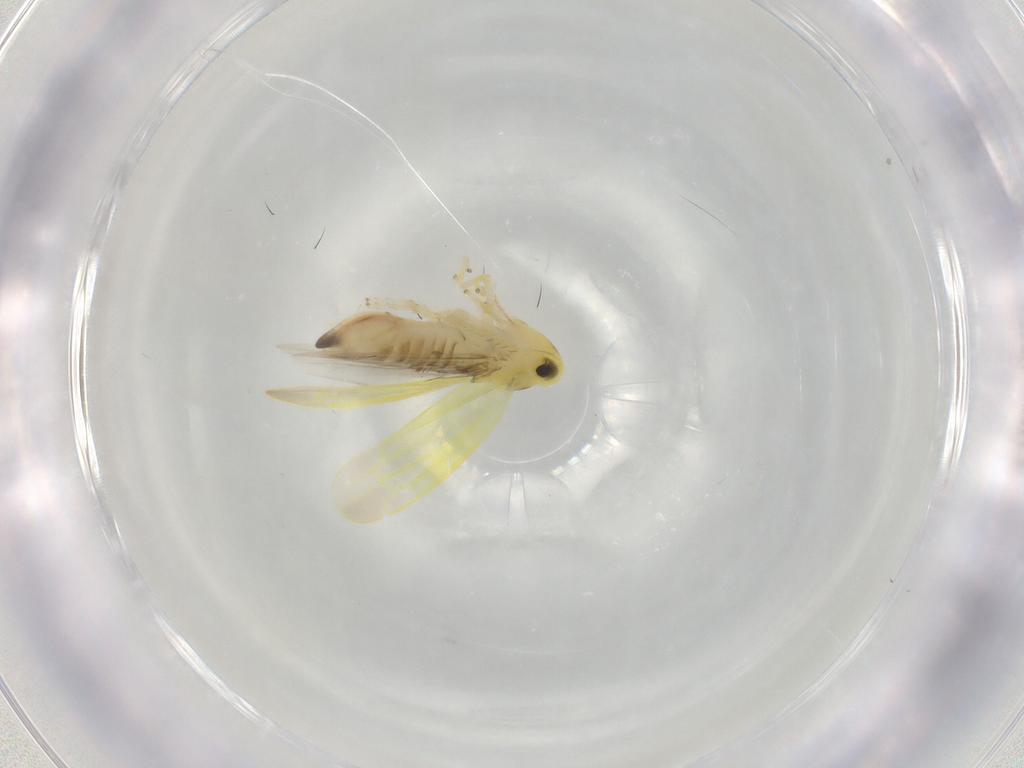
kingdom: Animalia
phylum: Arthropoda
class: Insecta
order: Hemiptera
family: Cicadellidae
